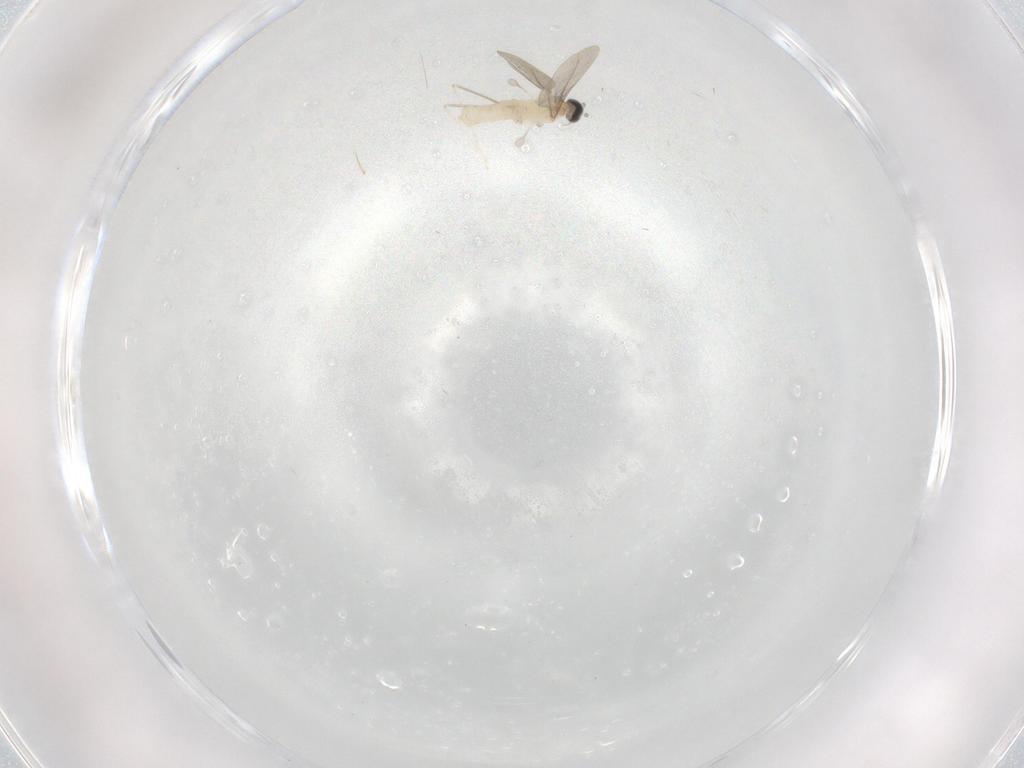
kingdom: Animalia
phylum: Arthropoda
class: Insecta
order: Diptera
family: Cecidomyiidae
